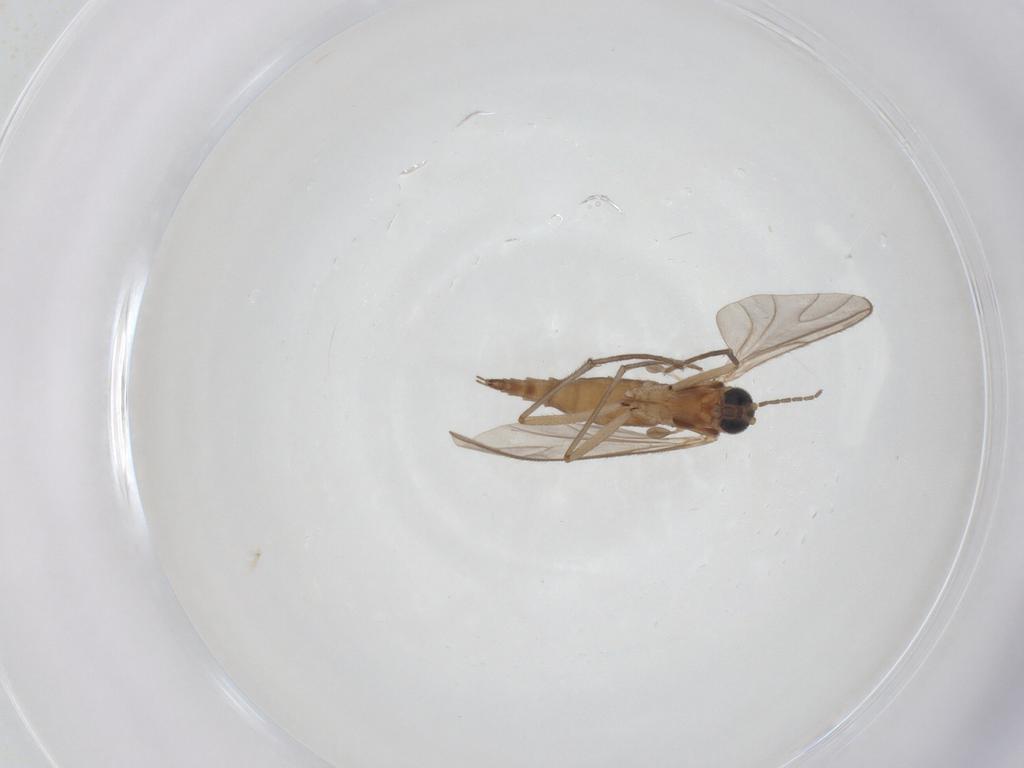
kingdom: Animalia
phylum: Arthropoda
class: Insecta
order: Diptera
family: Sciaridae
